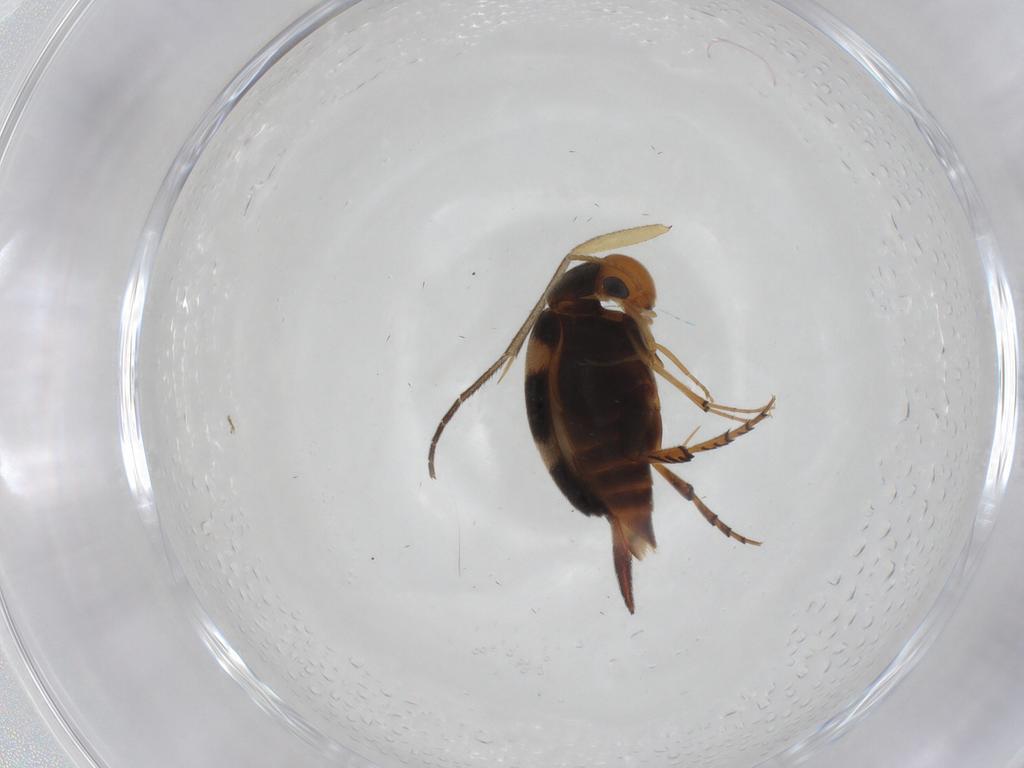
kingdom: Animalia
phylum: Arthropoda
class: Insecta
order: Coleoptera
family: Mordellidae
